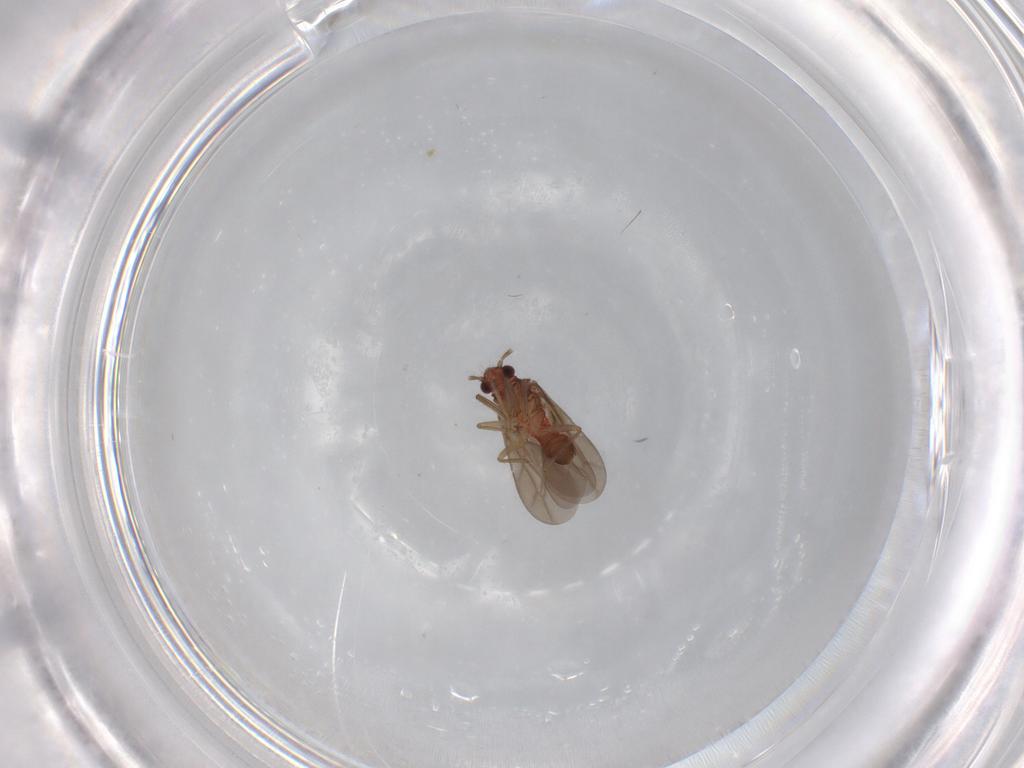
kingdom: Animalia
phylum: Arthropoda
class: Insecta
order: Hemiptera
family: Ceratocombidae
